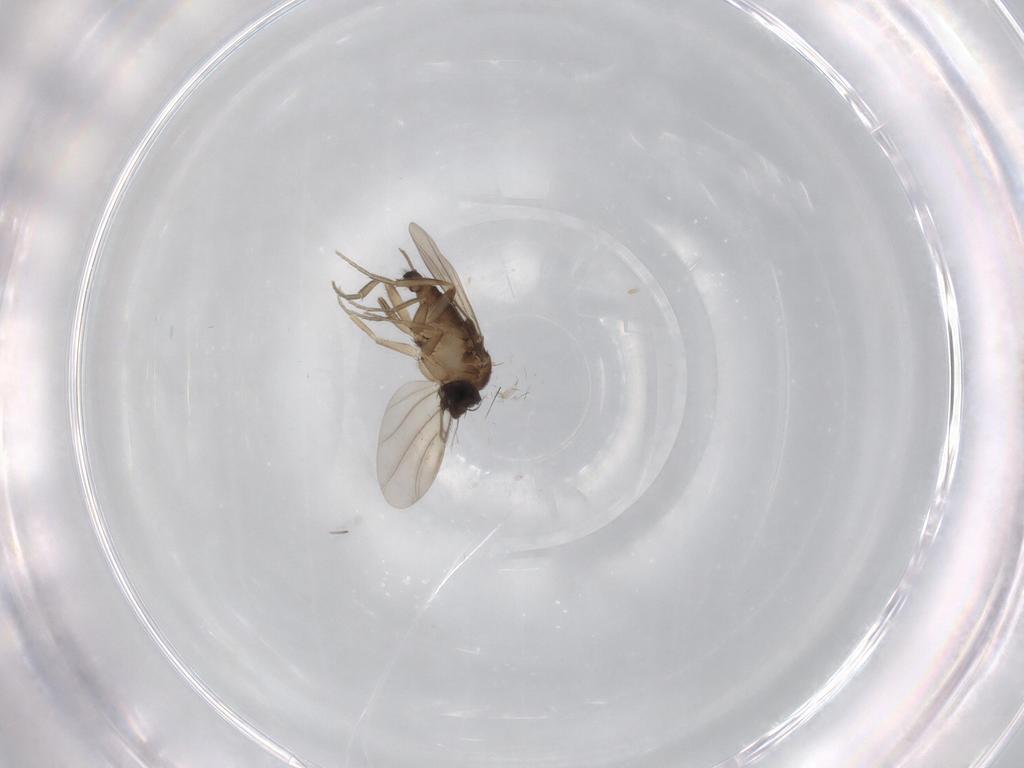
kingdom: Animalia
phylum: Arthropoda
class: Insecta
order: Diptera
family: Phoridae
